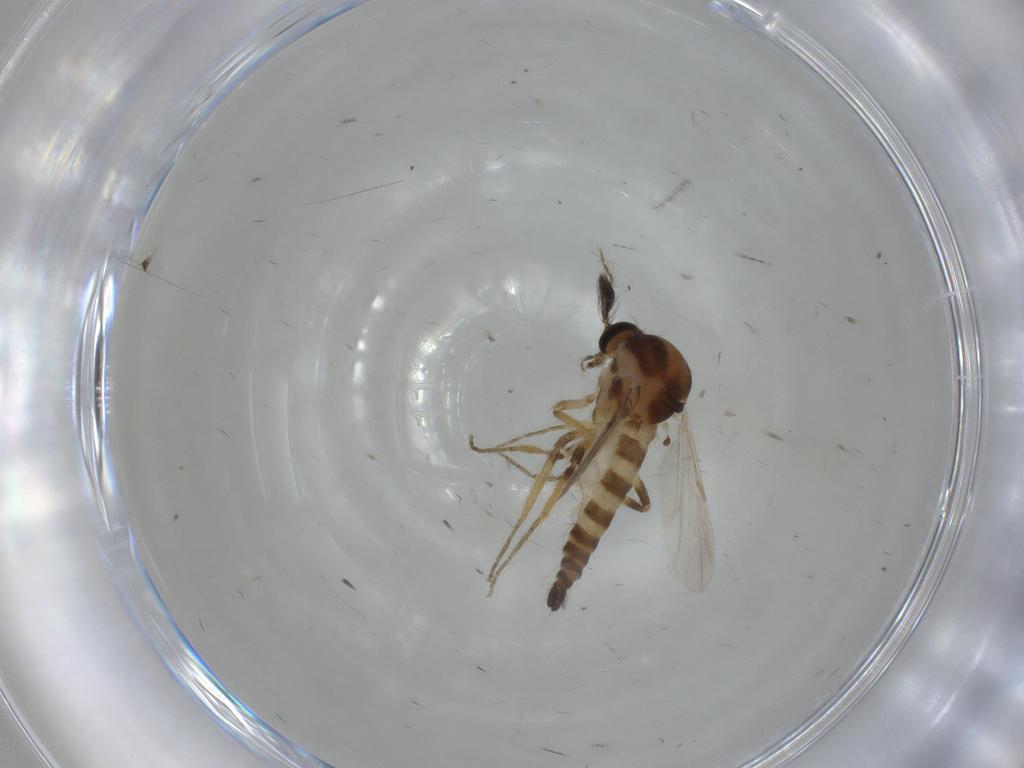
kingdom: Animalia
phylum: Arthropoda
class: Insecta
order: Diptera
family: Ceratopogonidae
